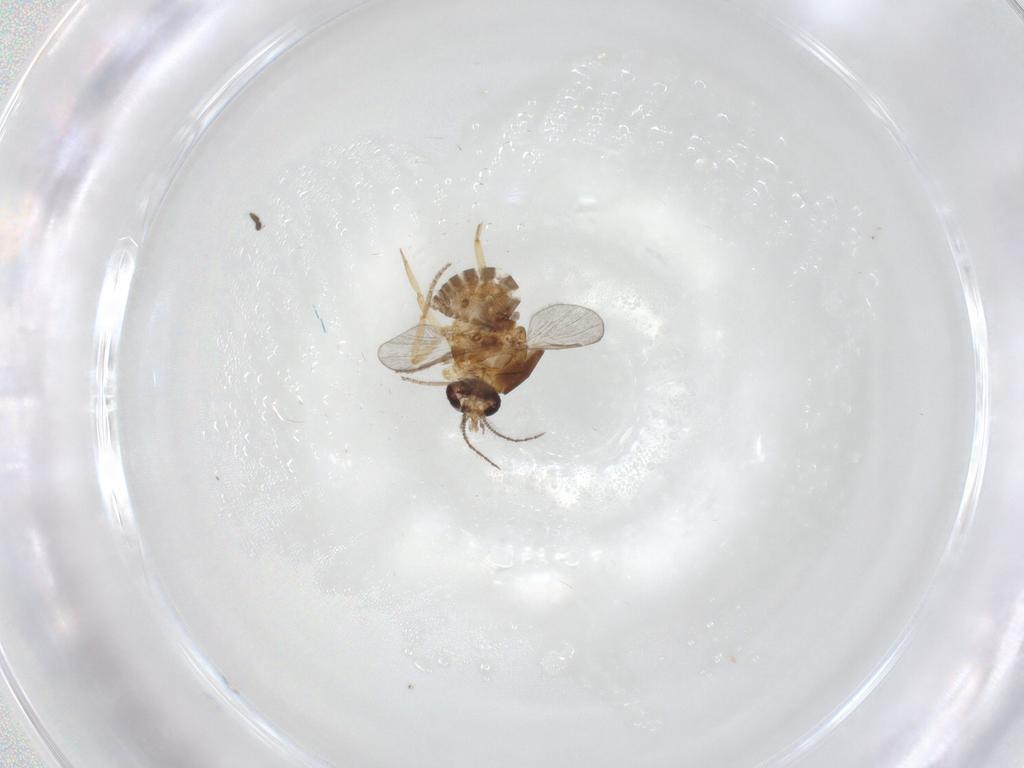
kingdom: Animalia
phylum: Arthropoda
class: Insecta
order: Diptera
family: Ceratopogonidae
